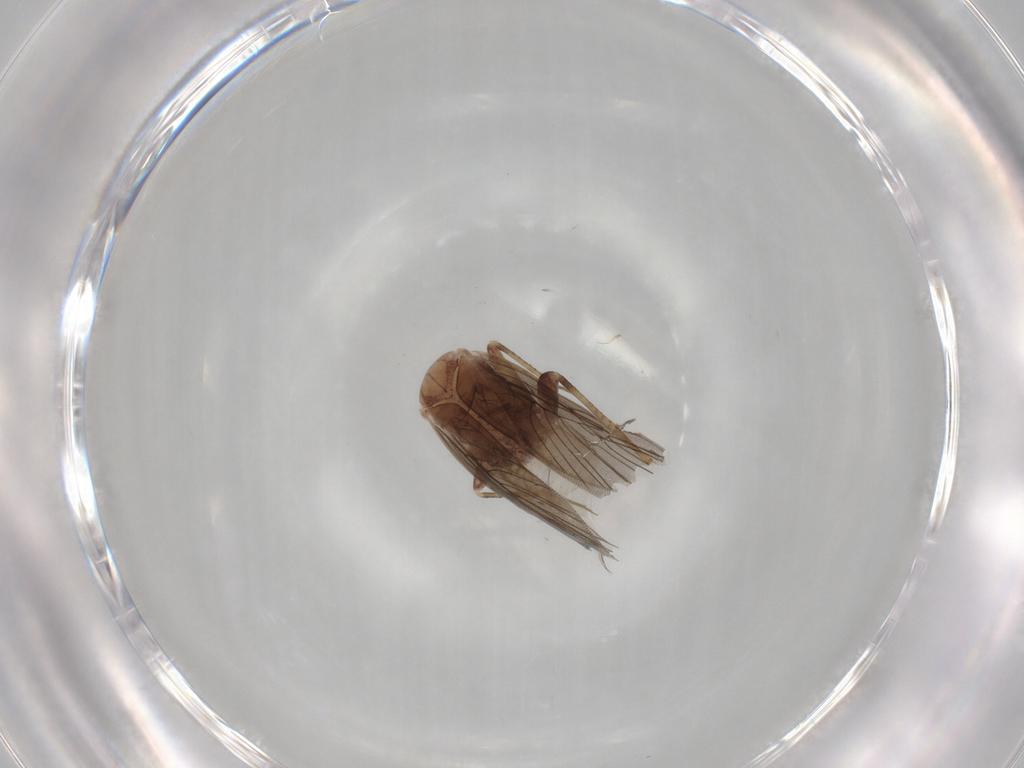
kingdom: Animalia
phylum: Arthropoda
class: Insecta
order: Psocodea
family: Lepidopsocidae
